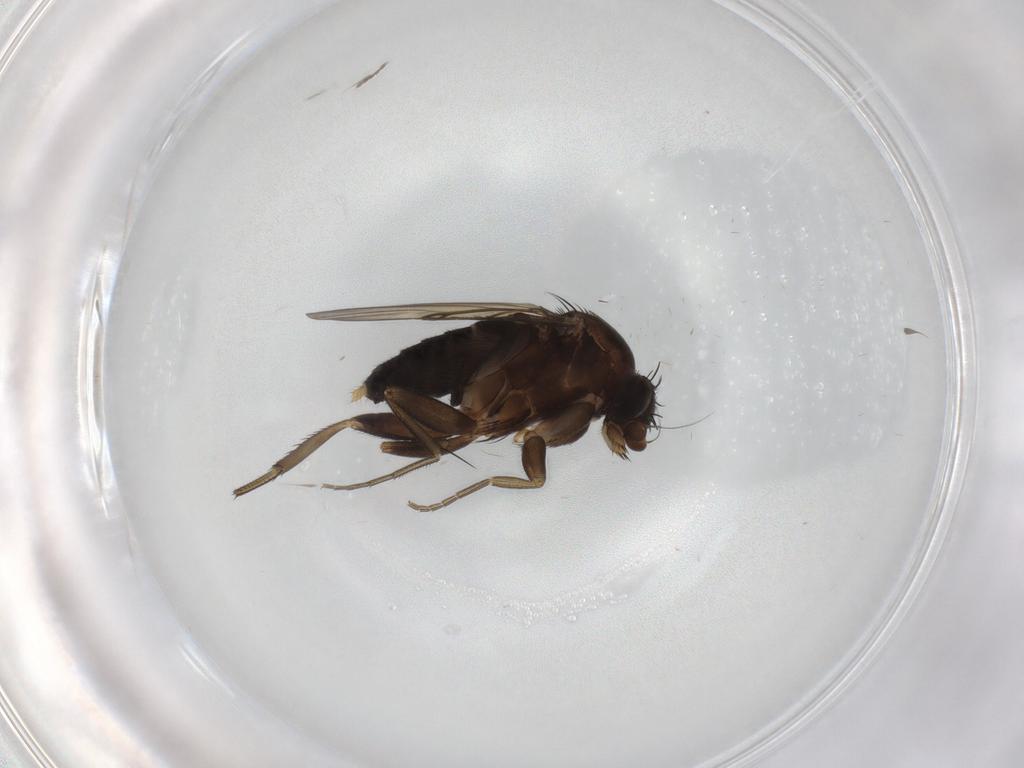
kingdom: Animalia
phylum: Arthropoda
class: Insecta
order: Diptera
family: Phoridae
